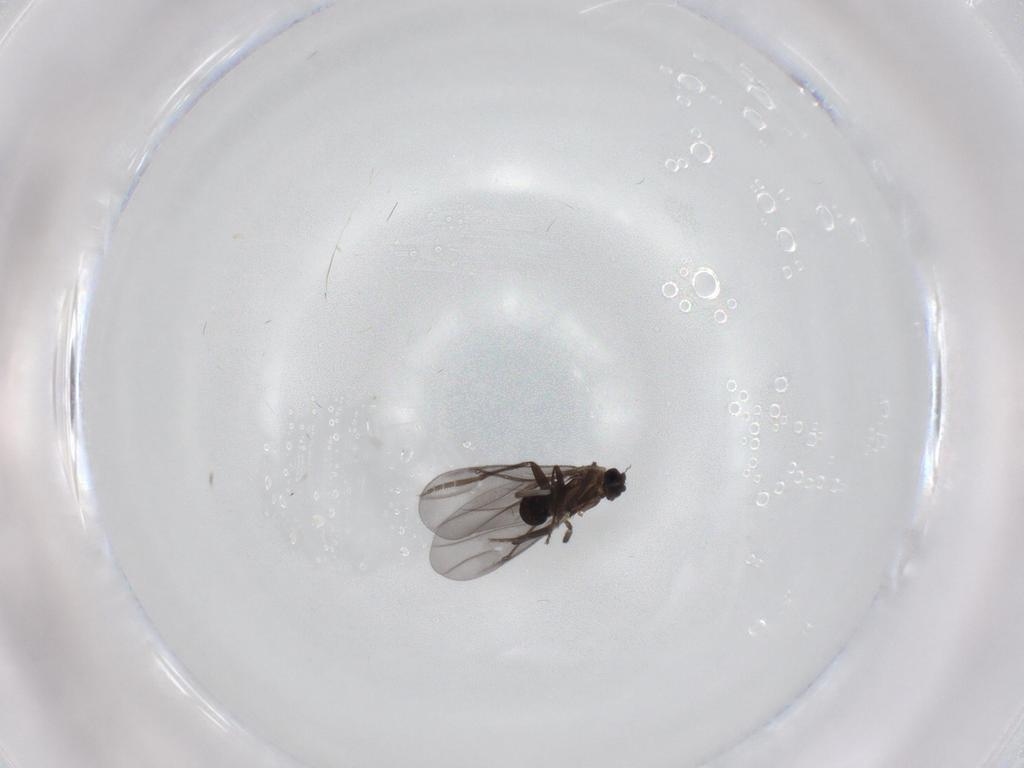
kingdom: Animalia
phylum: Arthropoda
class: Insecta
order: Diptera
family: Phoridae
